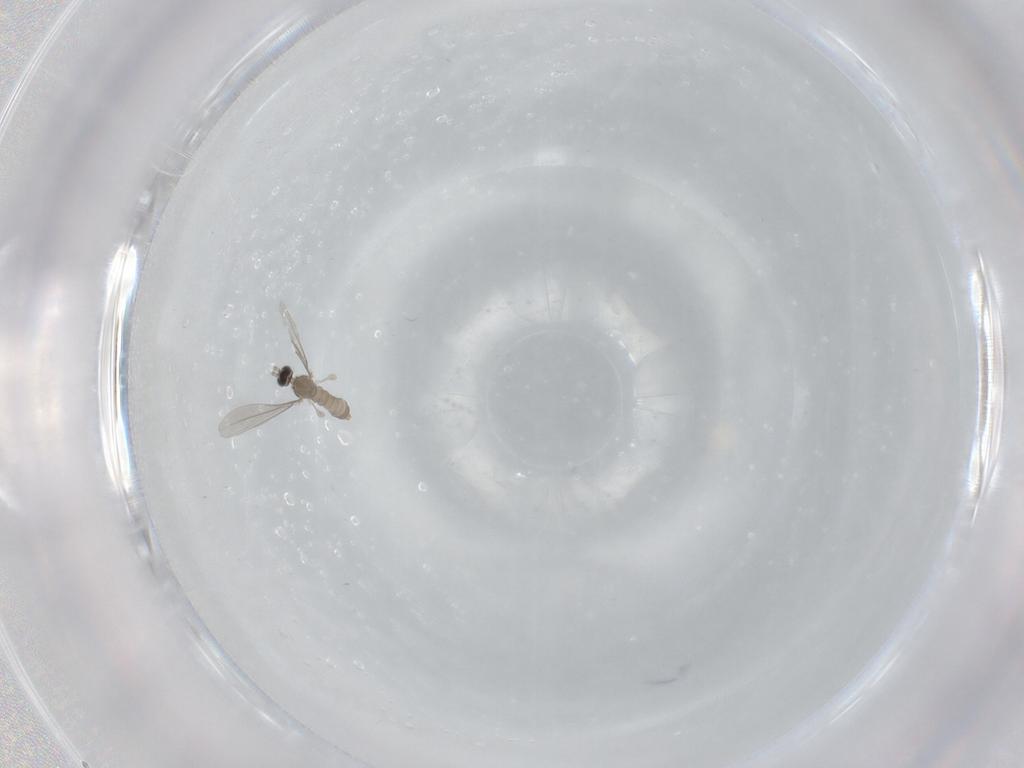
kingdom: Animalia
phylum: Arthropoda
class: Insecta
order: Diptera
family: Cecidomyiidae
